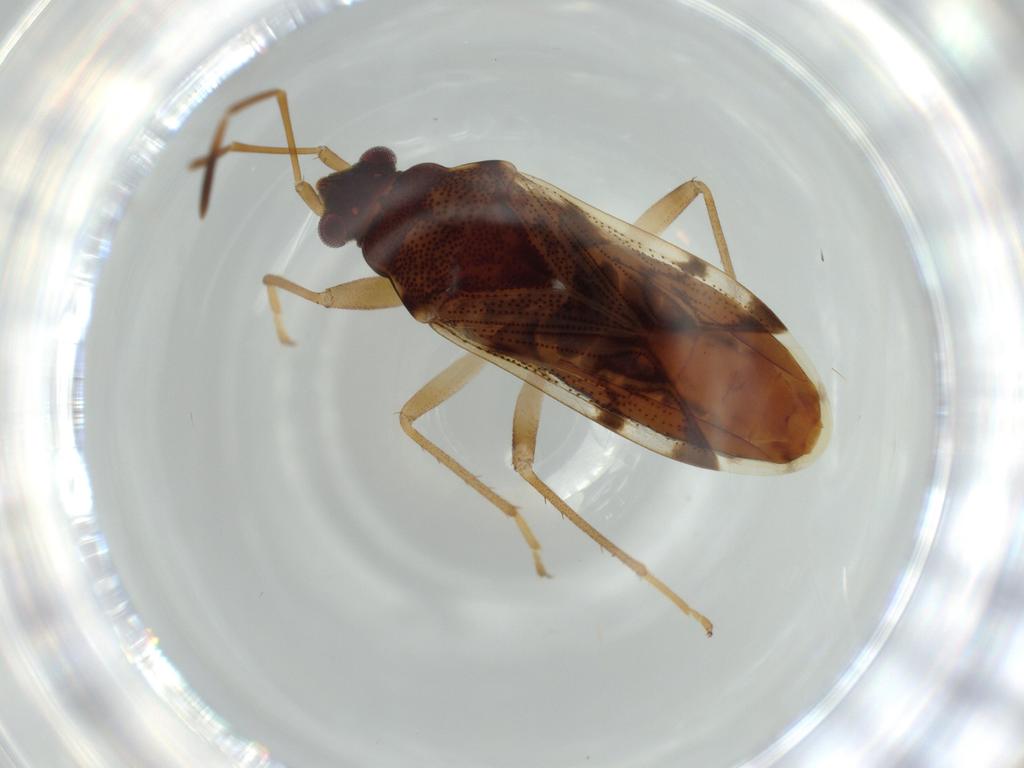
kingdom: Animalia
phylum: Arthropoda
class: Insecta
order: Hemiptera
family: Rhyparochromidae
